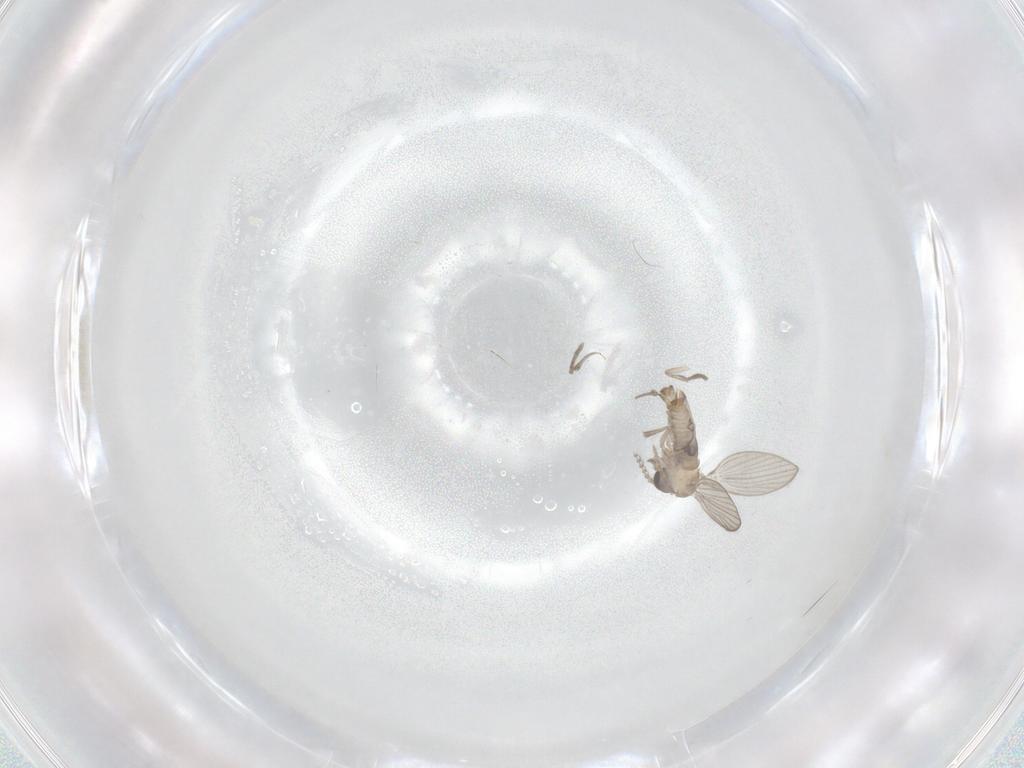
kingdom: Animalia
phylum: Arthropoda
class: Insecta
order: Diptera
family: Psychodidae
